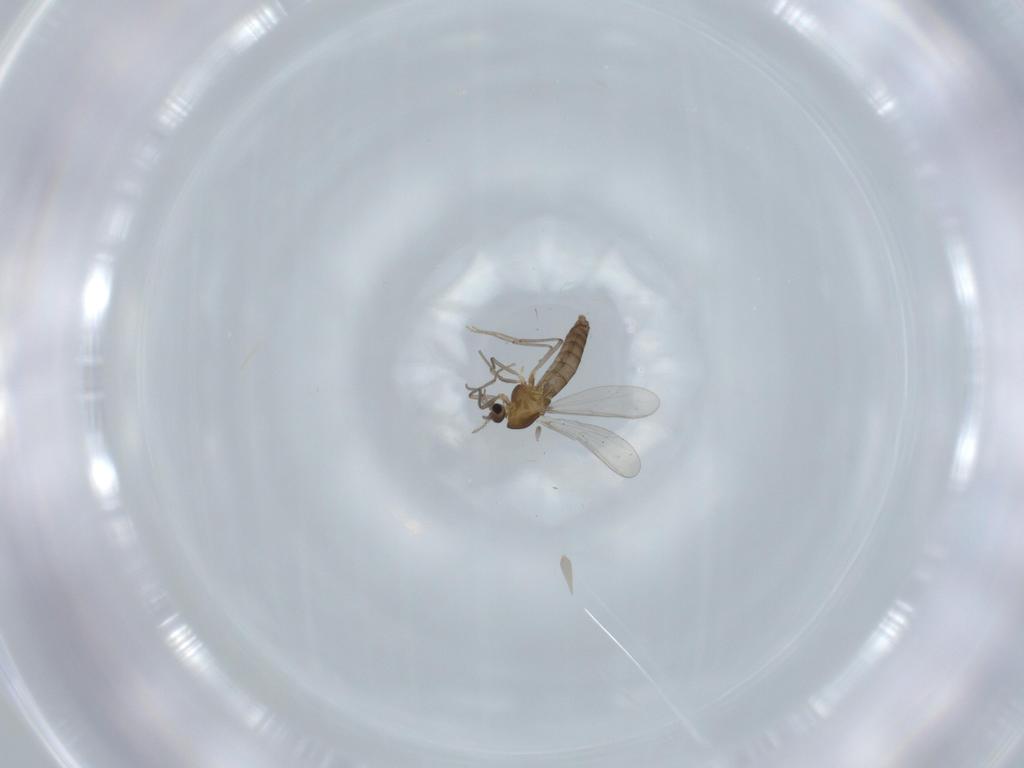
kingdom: Animalia
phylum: Arthropoda
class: Insecta
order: Diptera
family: Chironomidae
